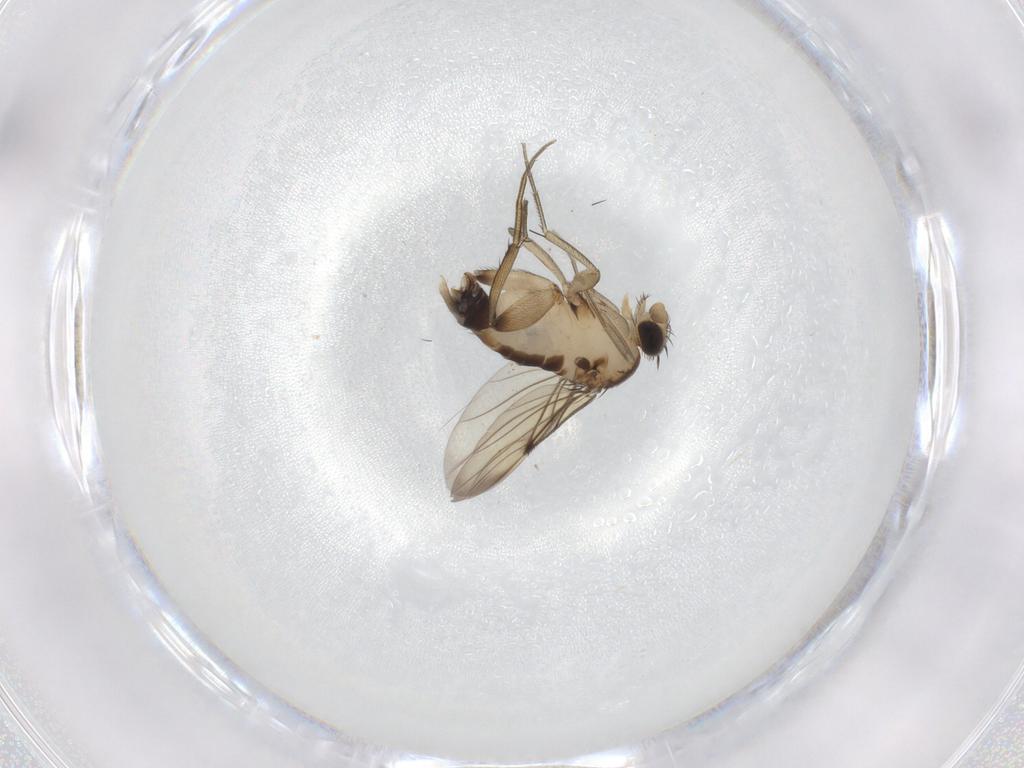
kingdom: Animalia
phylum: Arthropoda
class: Insecta
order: Diptera
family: Phoridae
